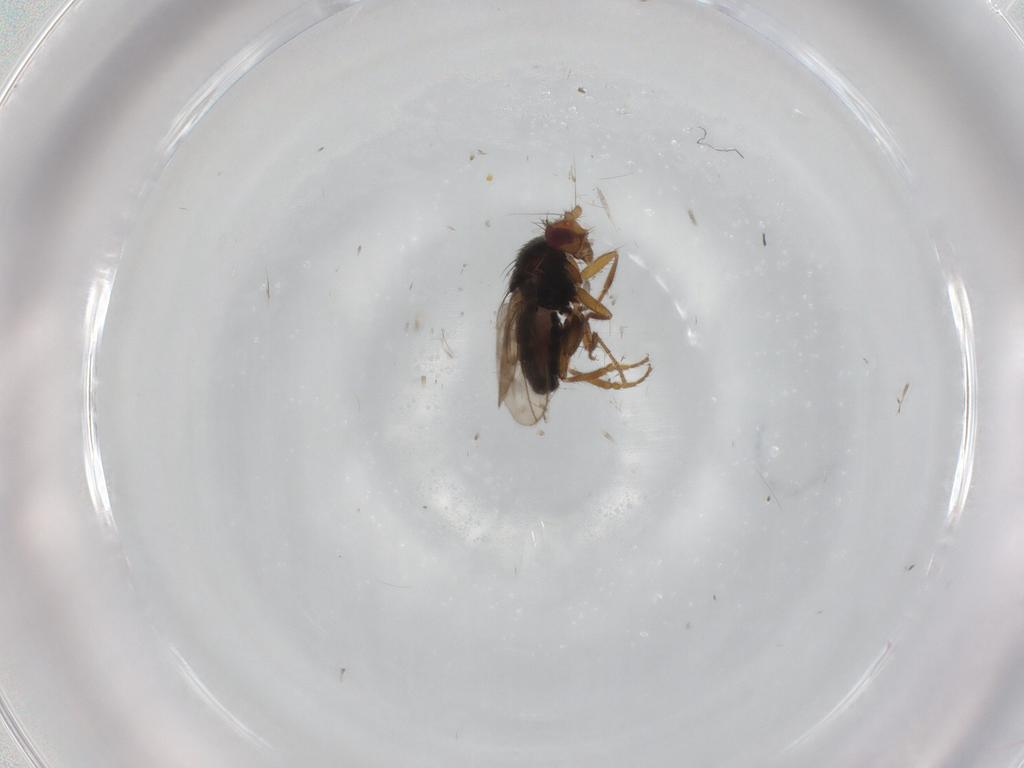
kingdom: Animalia
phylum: Arthropoda
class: Insecta
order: Diptera
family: Sphaeroceridae
